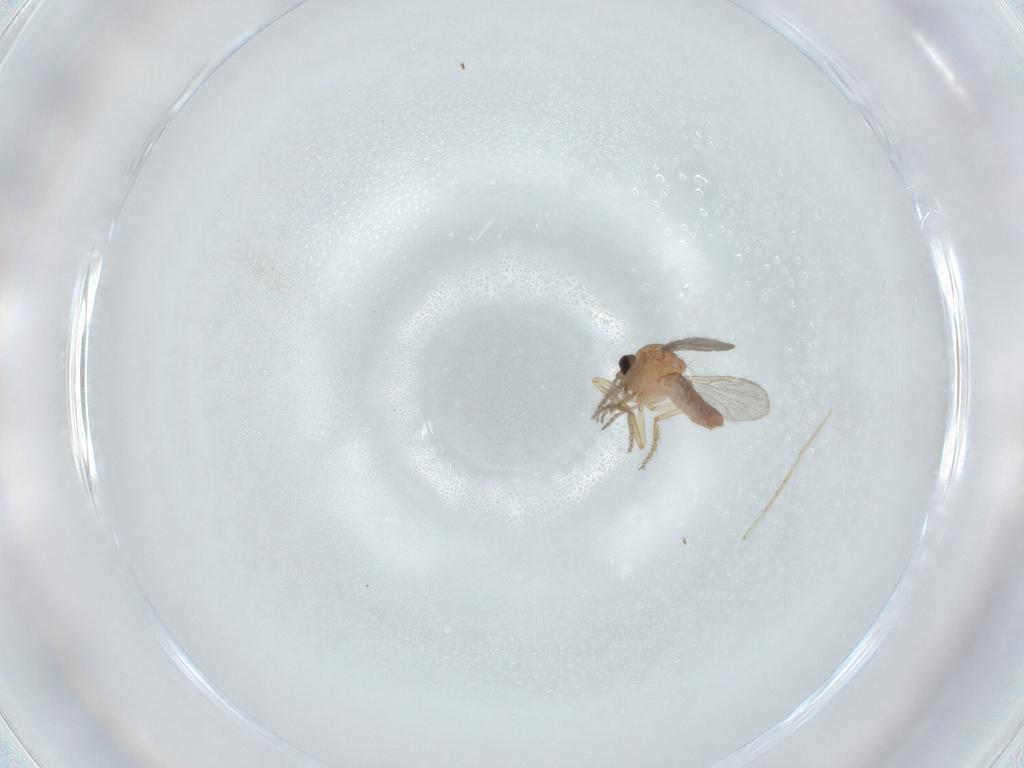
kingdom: Animalia
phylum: Arthropoda
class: Insecta
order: Diptera
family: Ceratopogonidae
